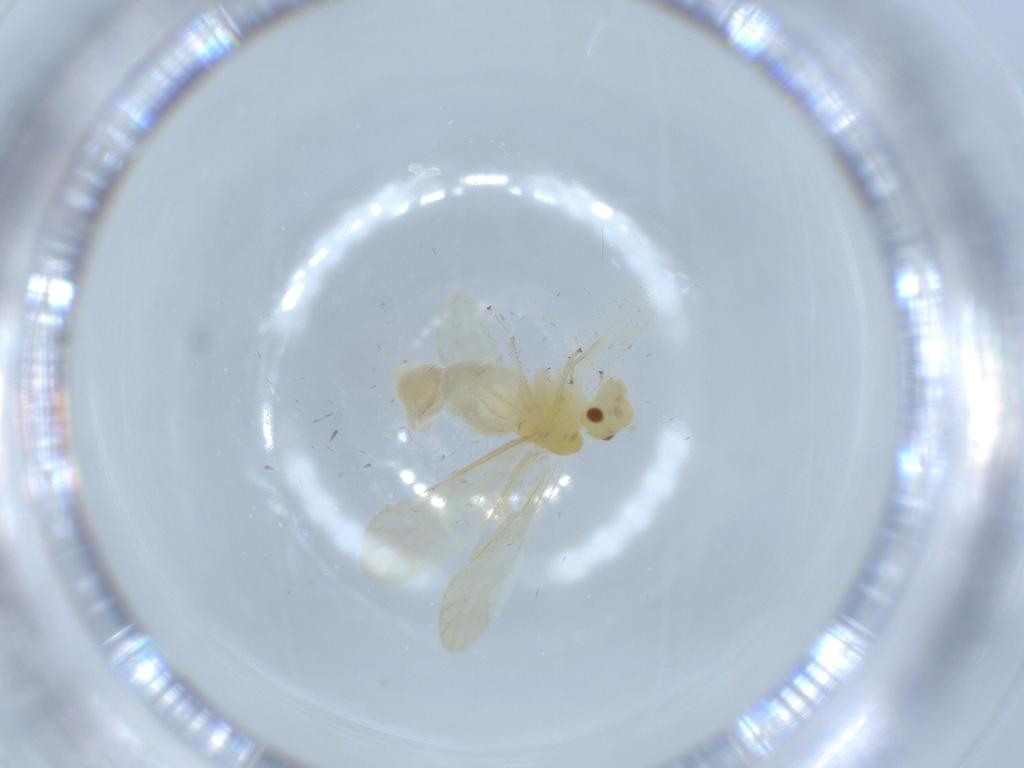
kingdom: Animalia
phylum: Arthropoda
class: Insecta
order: Psocodea
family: Caeciliusidae
